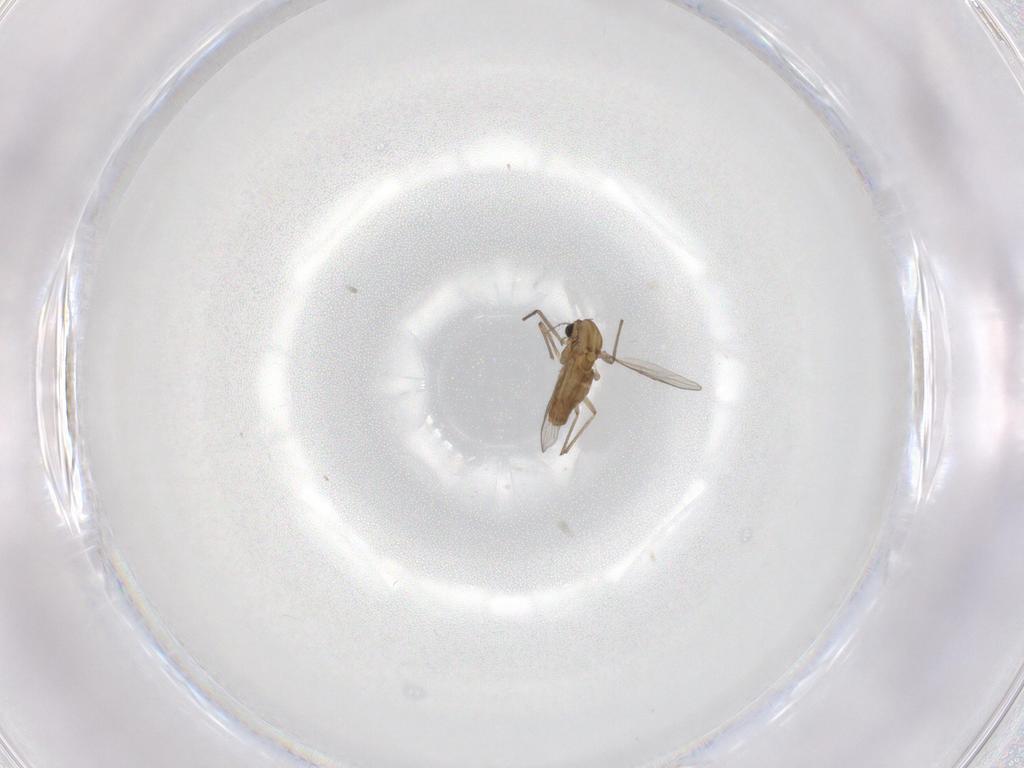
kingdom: Animalia
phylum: Arthropoda
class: Insecta
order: Diptera
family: Chironomidae
